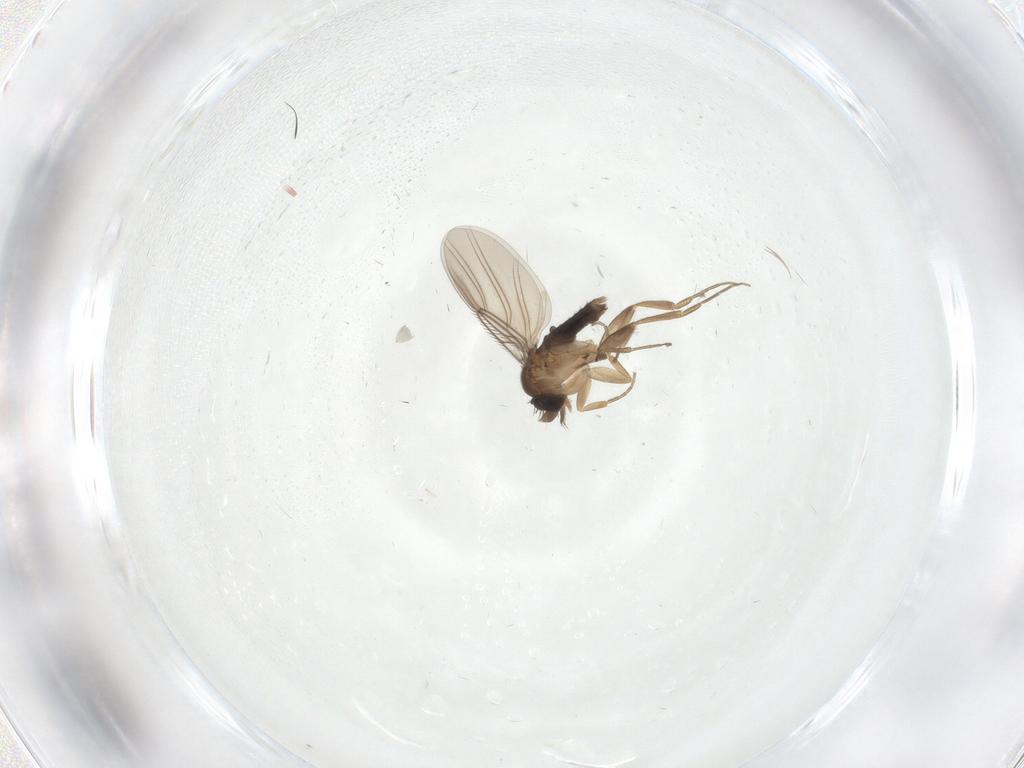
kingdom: Animalia
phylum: Arthropoda
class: Insecta
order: Diptera
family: Phoridae
